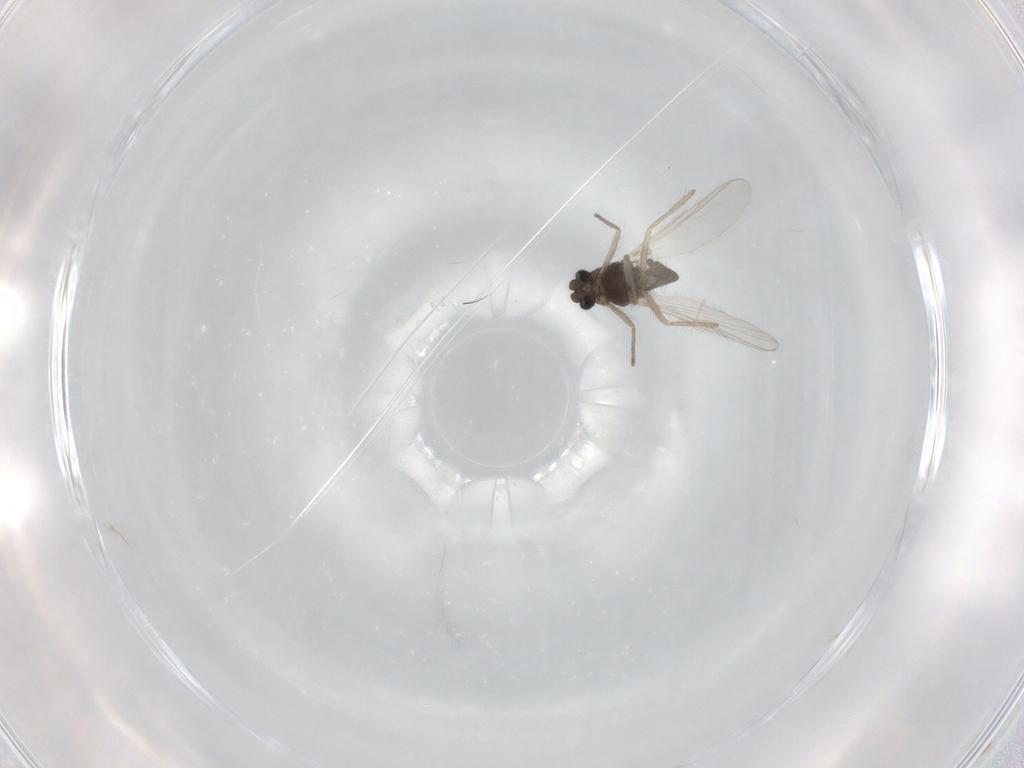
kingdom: Animalia
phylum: Arthropoda
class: Insecta
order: Diptera
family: Chironomidae
